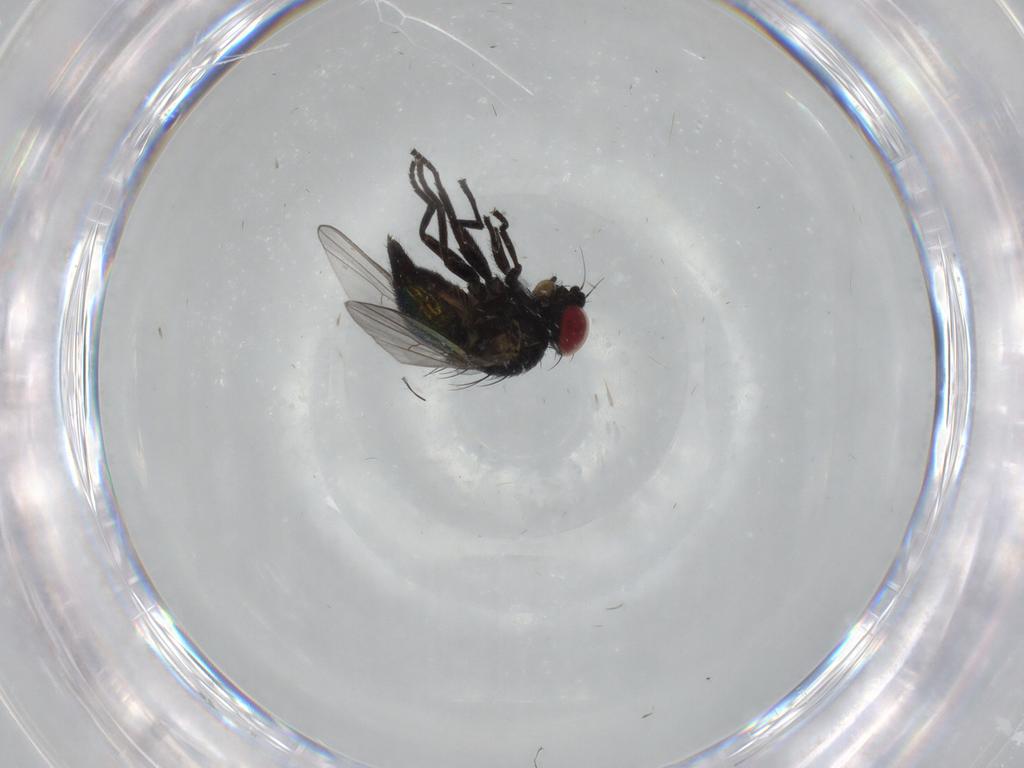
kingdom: Animalia
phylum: Arthropoda
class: Insecta
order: Diptera
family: Agromyzidae
